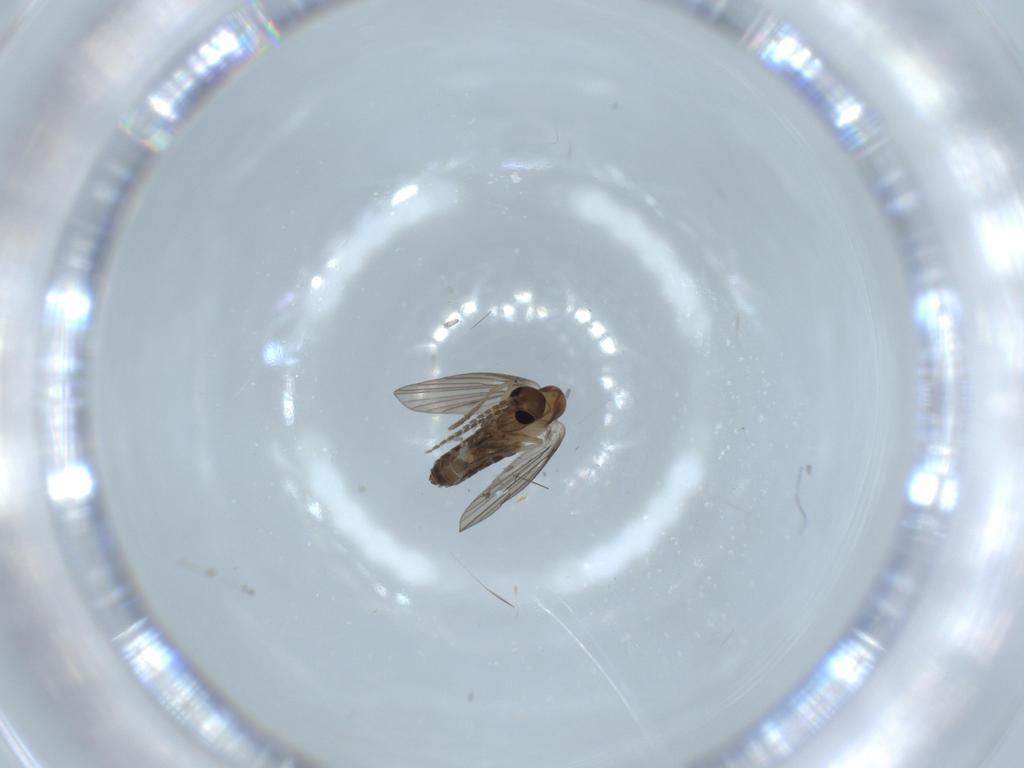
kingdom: Animalia
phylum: Arthropoda
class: Insecta
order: Diptera
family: Psychodidae
